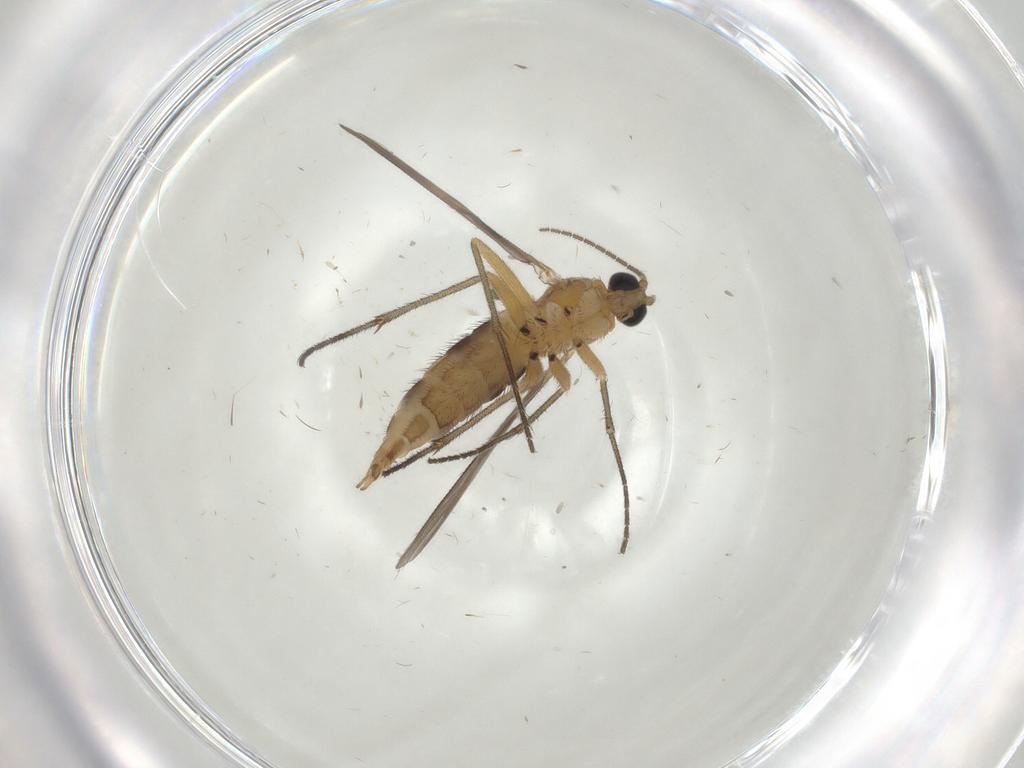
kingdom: Animalia
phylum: Arthropoda
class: Insecta
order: Diptera
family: Sciaridae
